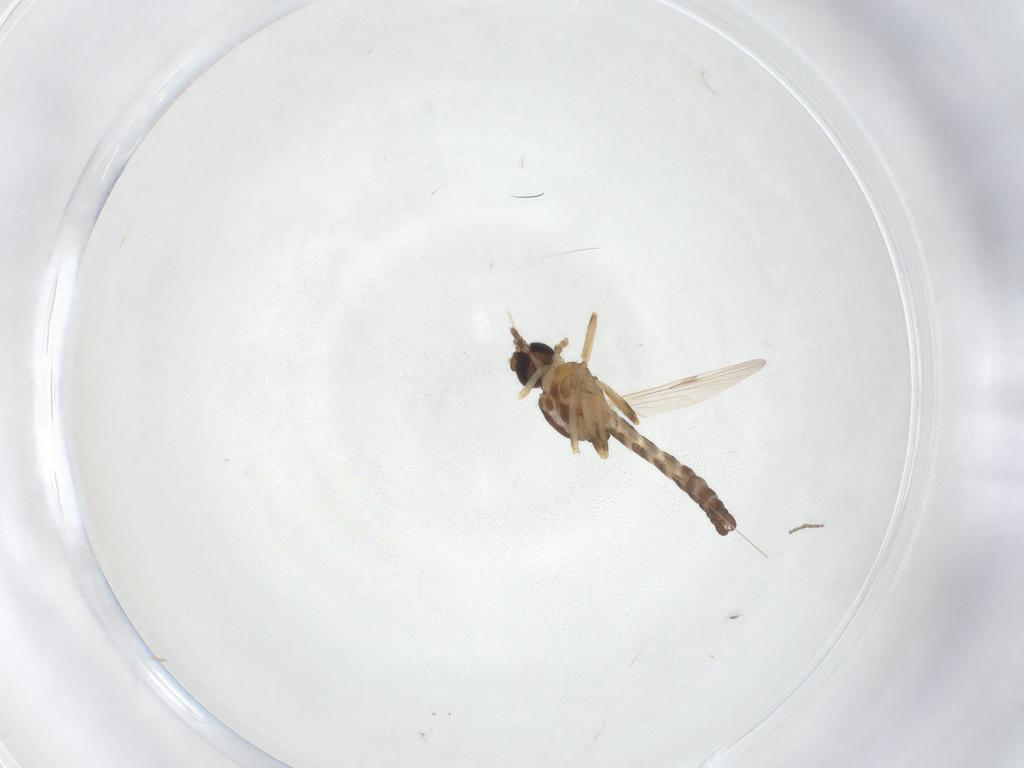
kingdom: Animalia
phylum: Arthropoda
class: Insecta
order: Diptera
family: Ceratopogonidae
